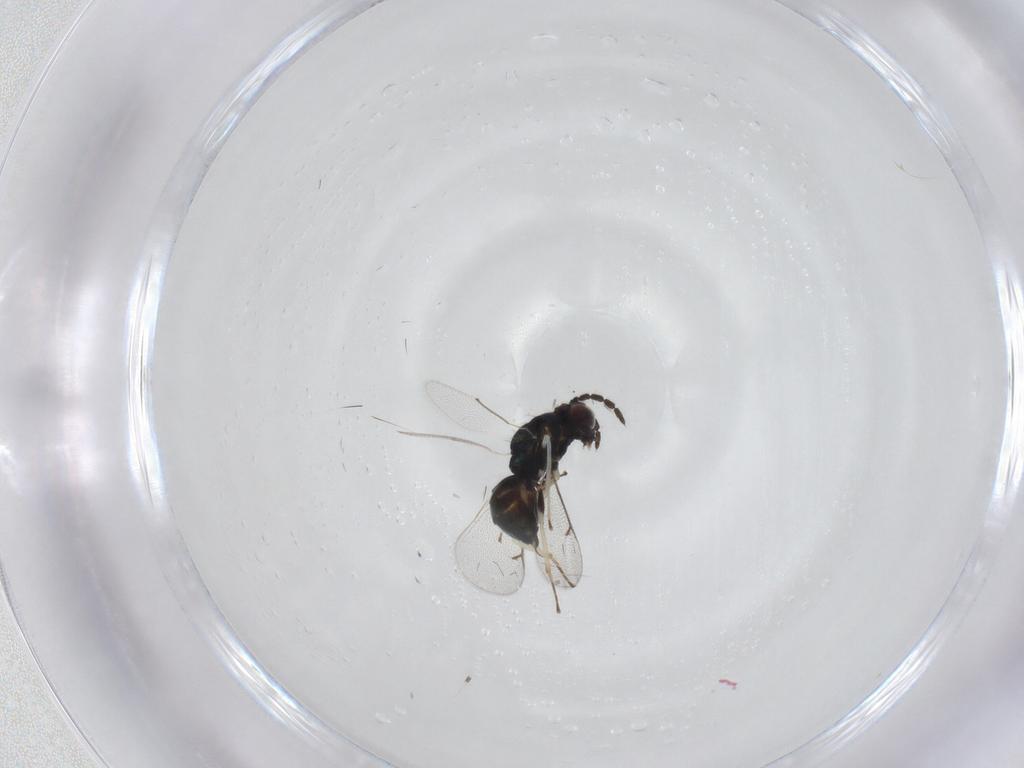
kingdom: Animalia
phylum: Arthropoda
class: Insecta
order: Hymenoptera
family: Eulophidae
